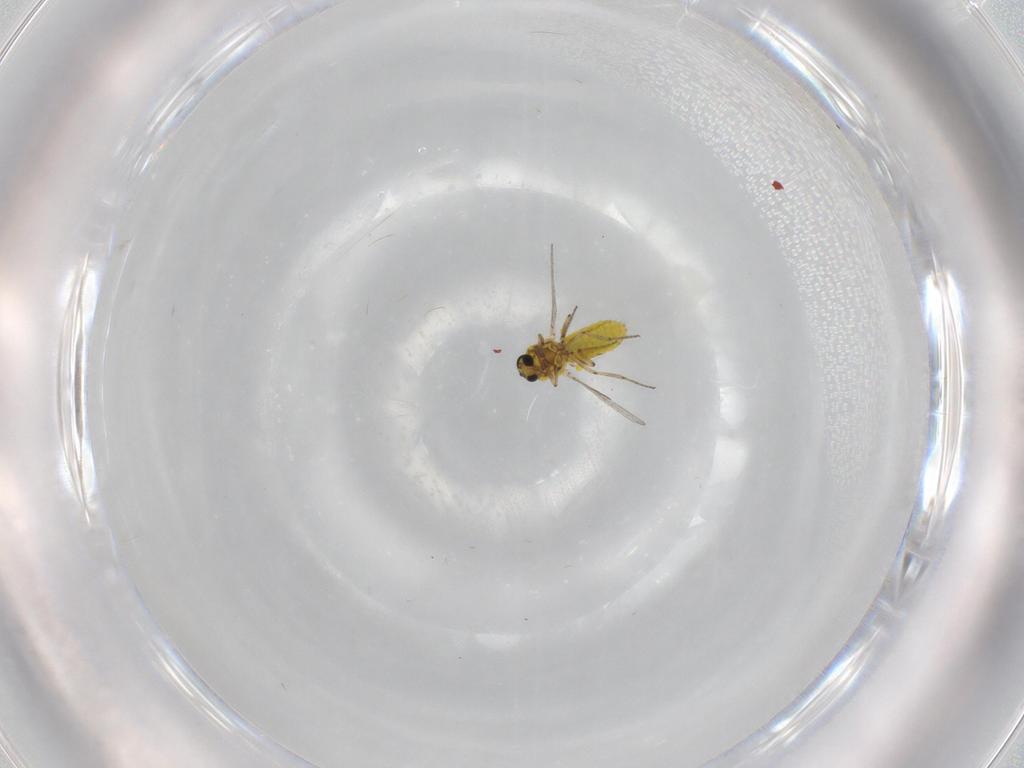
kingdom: Animalia
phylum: Arthropoda
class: Insecta
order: Diptera
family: Ceratopogonidae
